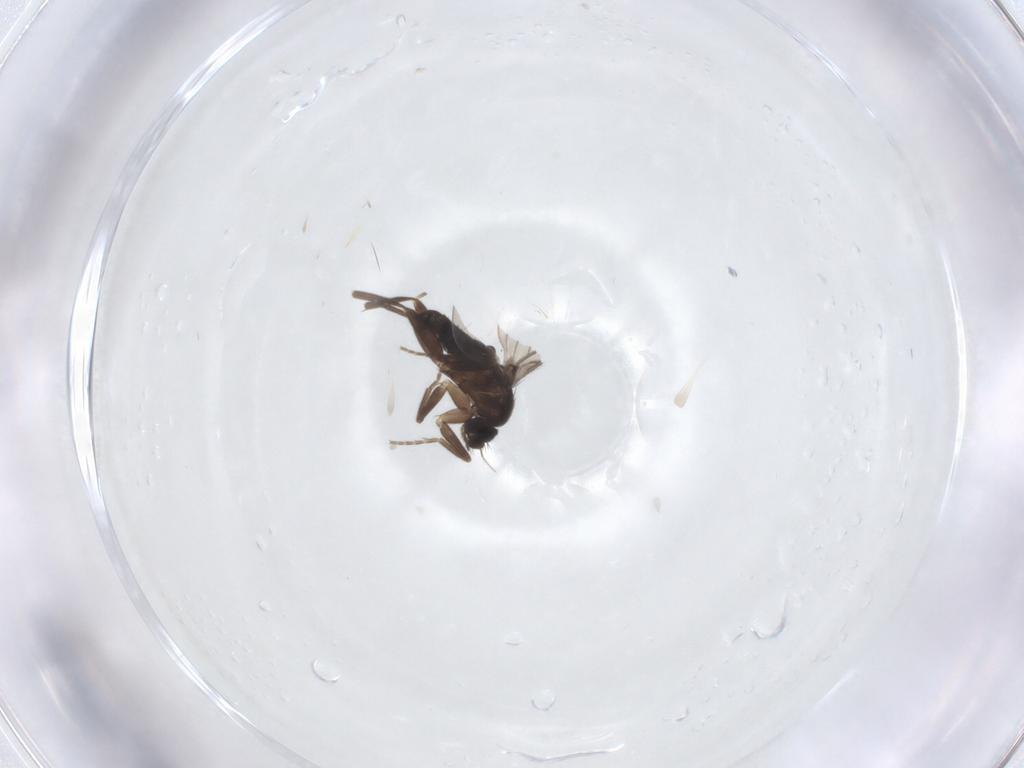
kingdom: Animalia
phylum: Arthropoda
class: Insecta
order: Diptera
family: Phoridae
